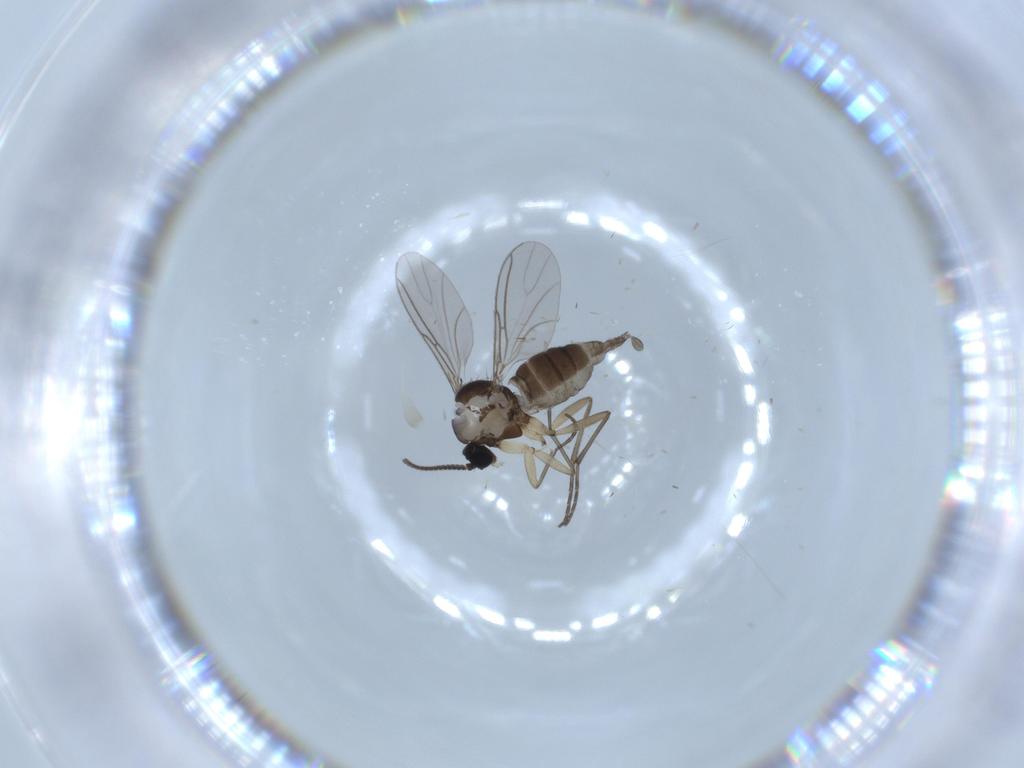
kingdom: Animalia
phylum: Arthropoda
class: Insecta
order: Diptera
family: Sciaridae
